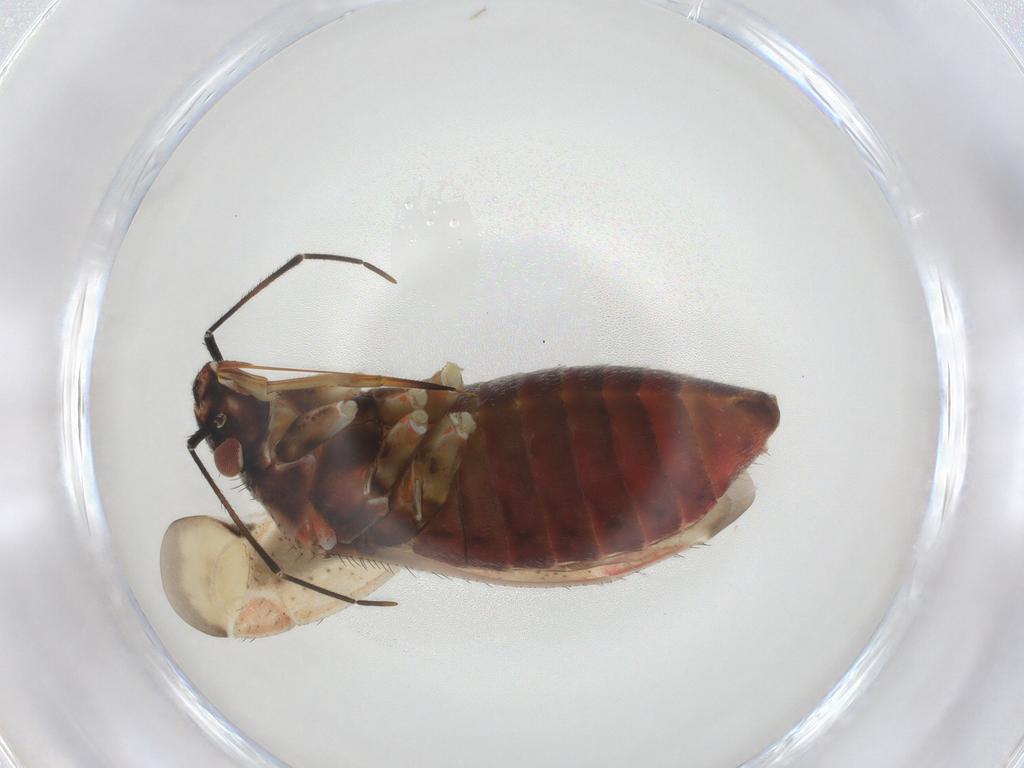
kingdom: Animalia
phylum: Arthropoda
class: Insecta
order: Hemiptera
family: Miridae
